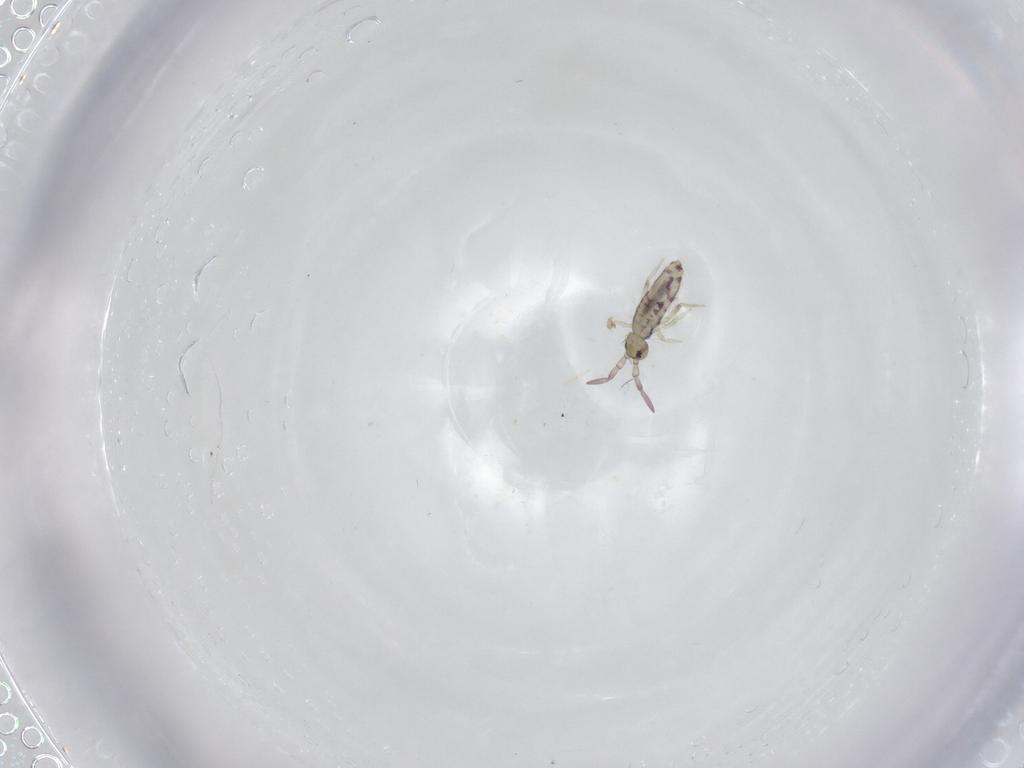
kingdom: Animalia
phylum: Arthropoda
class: Collembola
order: Entomobryomorpha
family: Entomobryidae
